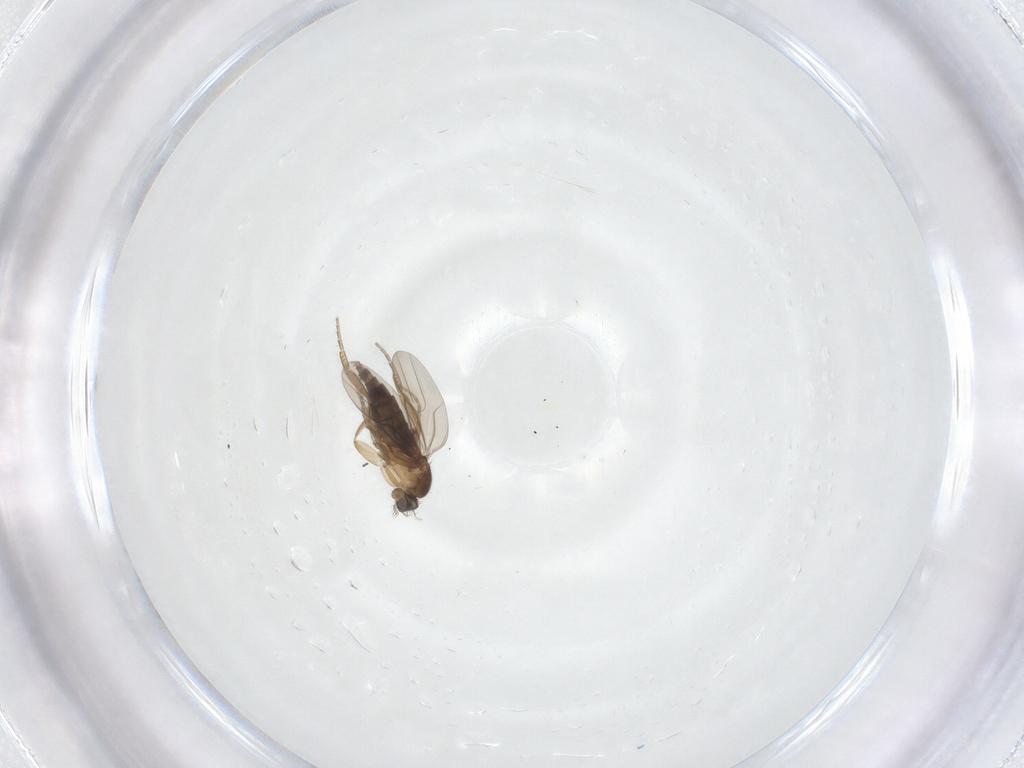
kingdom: Animalia
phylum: Arthropoda
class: Insecta
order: Diptera
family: Phoridae
